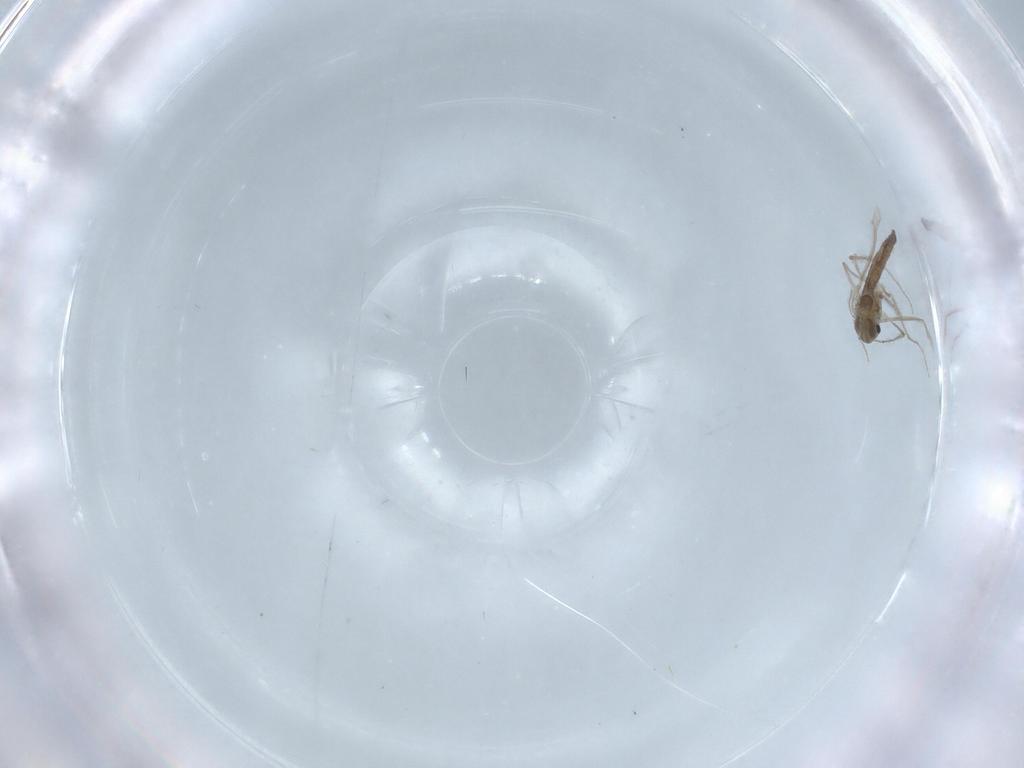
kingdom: Animalia
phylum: Arthropoda
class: Insecta
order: Diptera
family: Chironomidae
